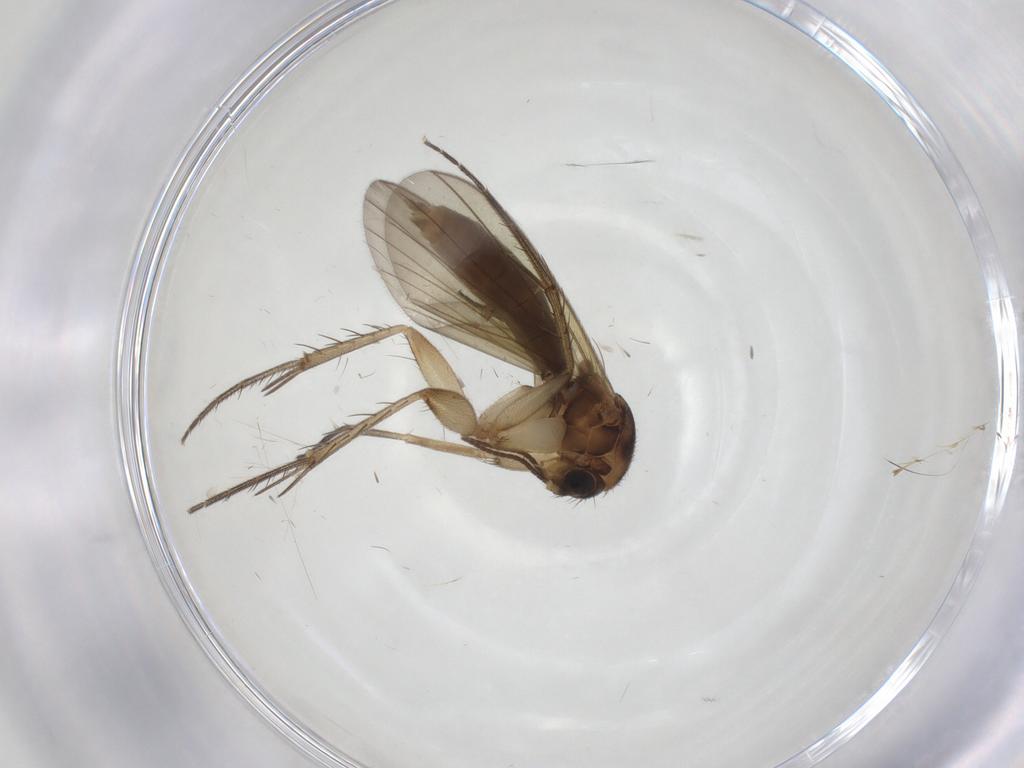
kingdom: Animalia
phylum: Arthropoda
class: Insecta
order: Diptera
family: Mycetophilidae
